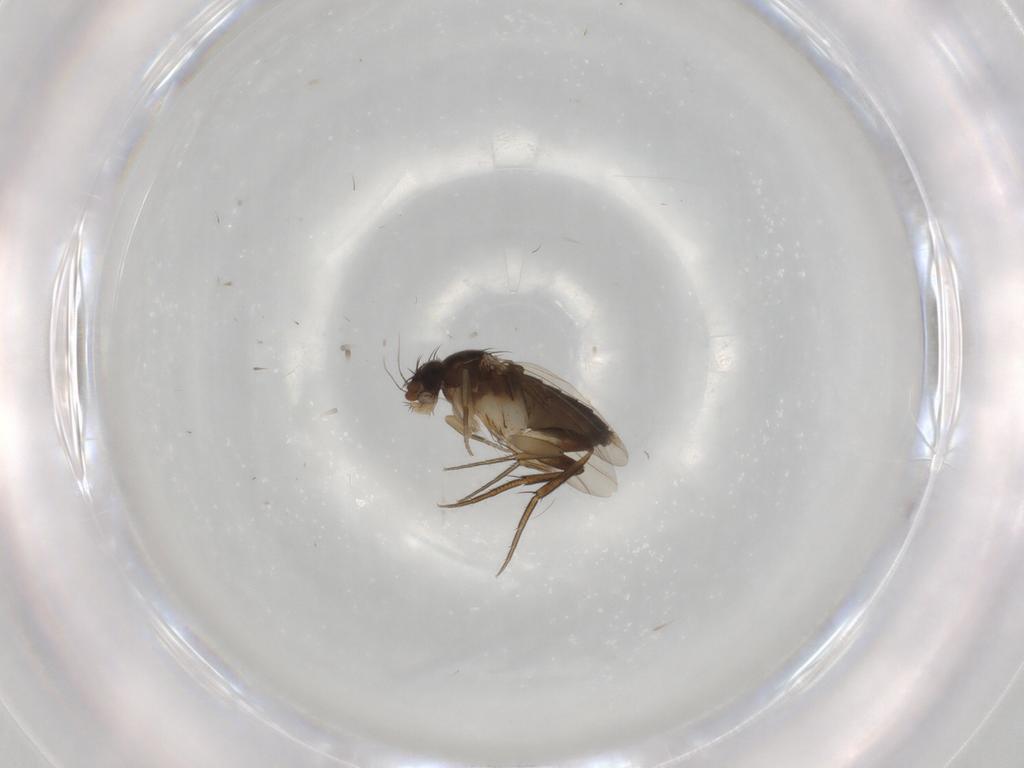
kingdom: Animalia
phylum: Arthropoda
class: Insecta
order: Diptera
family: Phoridae
